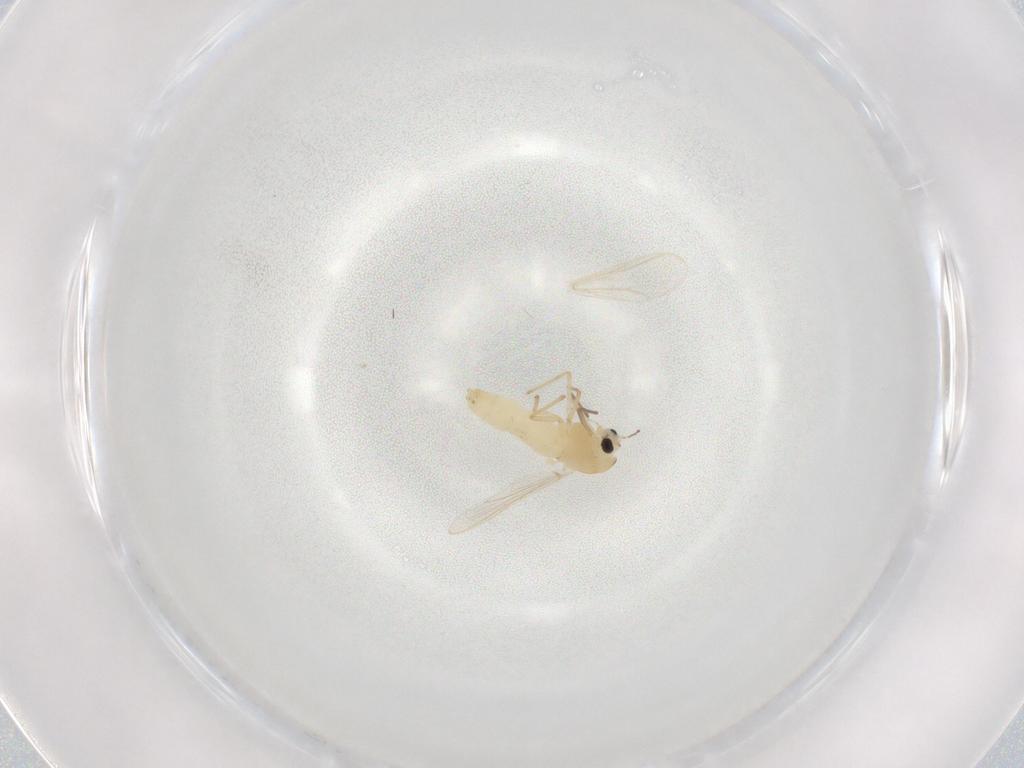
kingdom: Animalia
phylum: Arthropoda
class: Insecta
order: Diptera
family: Chironomidae
